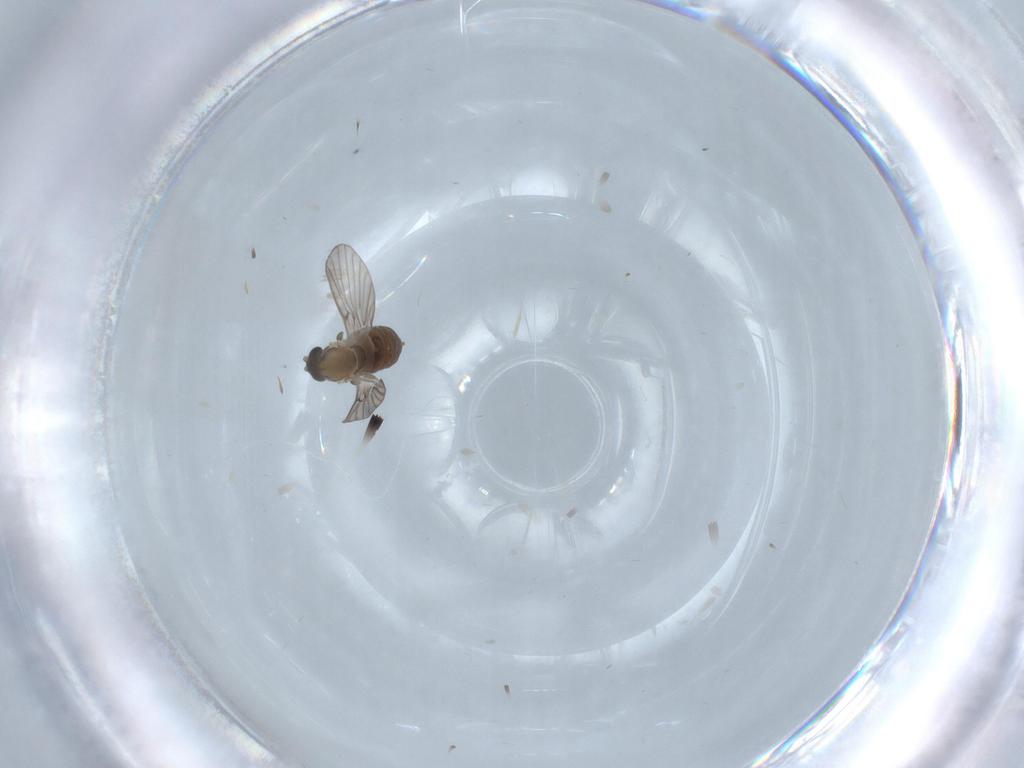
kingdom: Animalia
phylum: Arthropoda
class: Insecta
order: Diptera
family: Psychodidae
